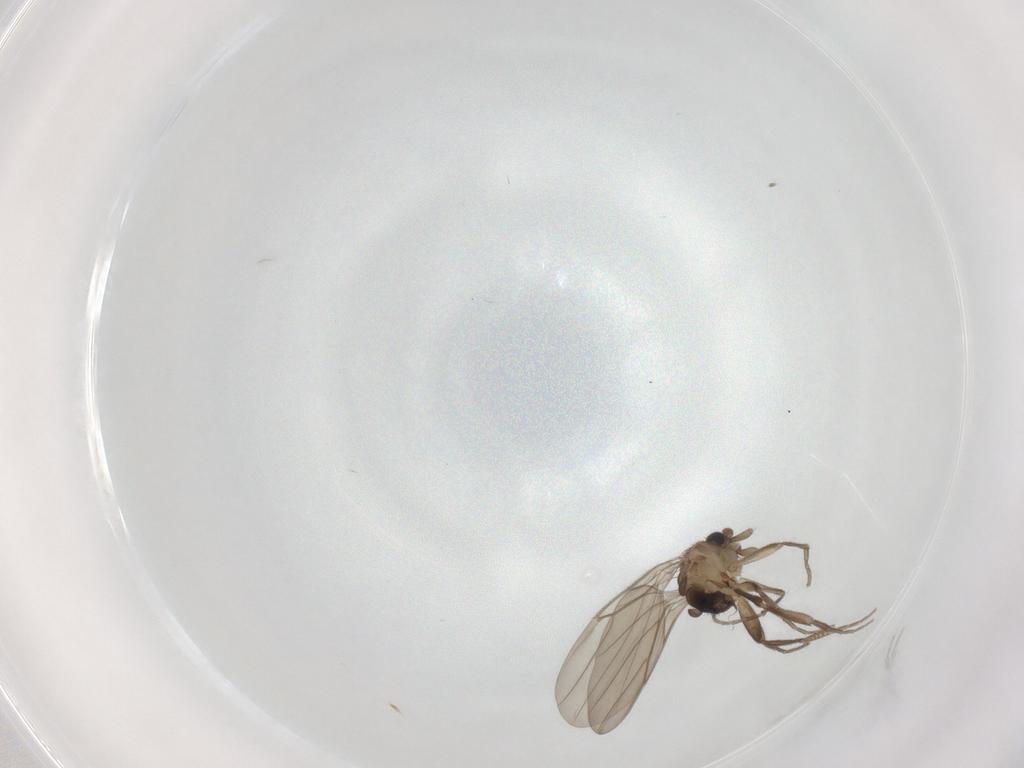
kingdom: Animalia
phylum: Arthropoda
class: Insecta
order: Diptera
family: Phoridae
